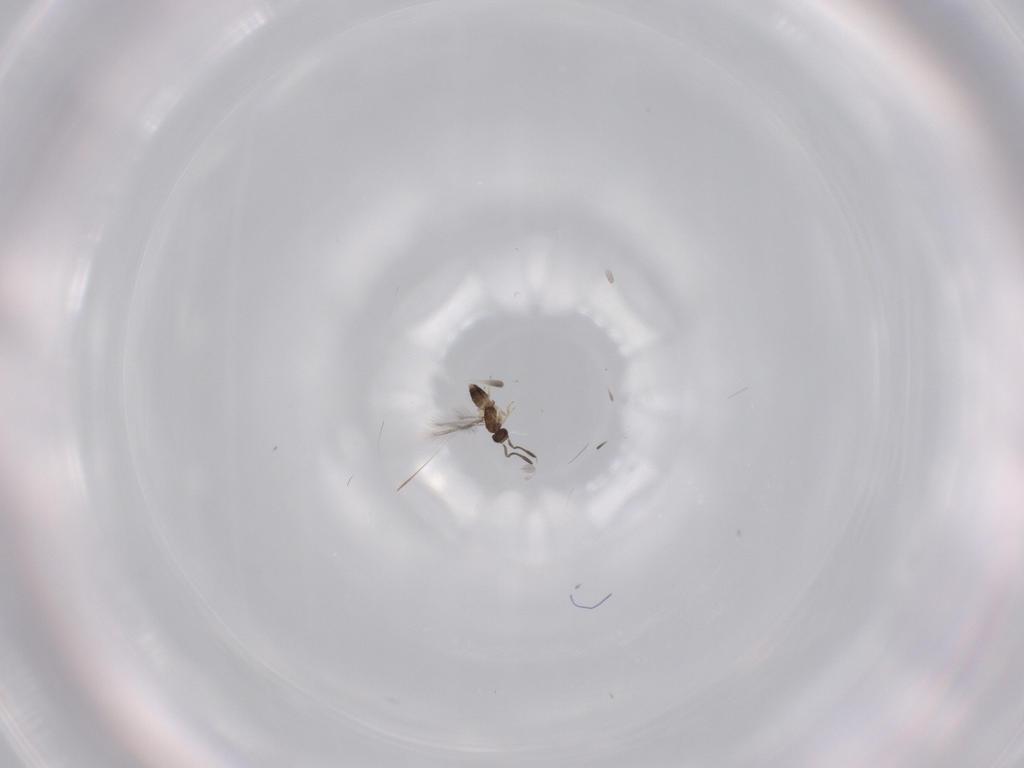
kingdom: Animalia
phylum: Arthropoda
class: Insecta
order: Hymenoptera
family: Mymaridae
